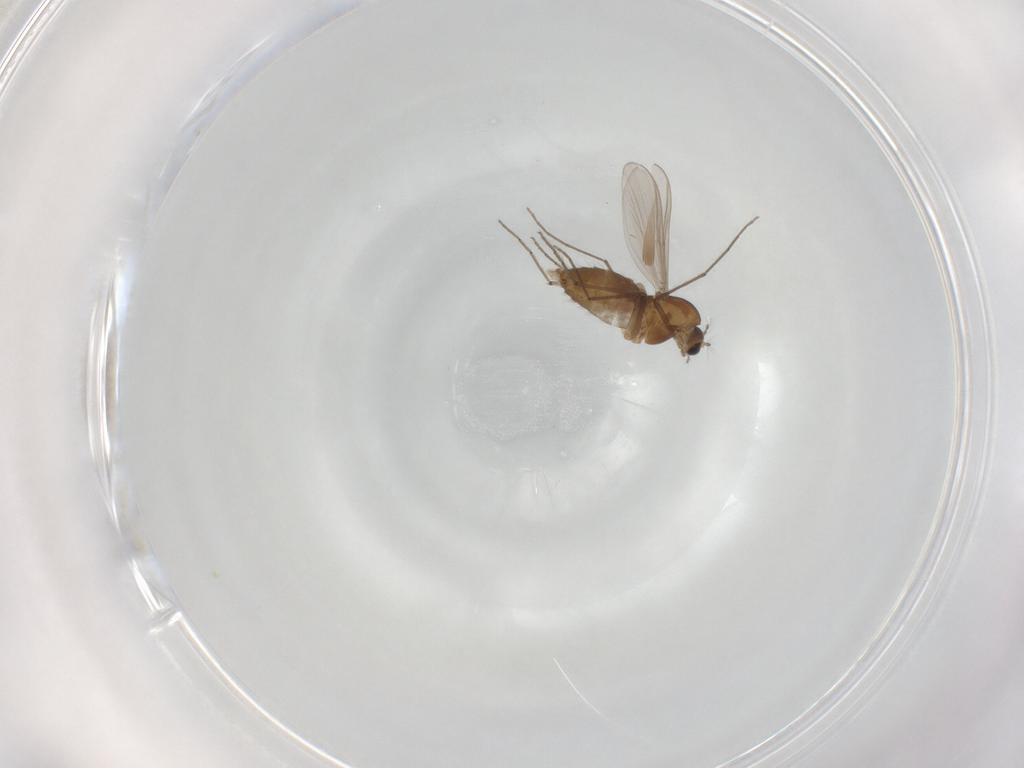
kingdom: Animalia
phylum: Arthropoda
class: Insecta
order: Diptera
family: Chironomidae
